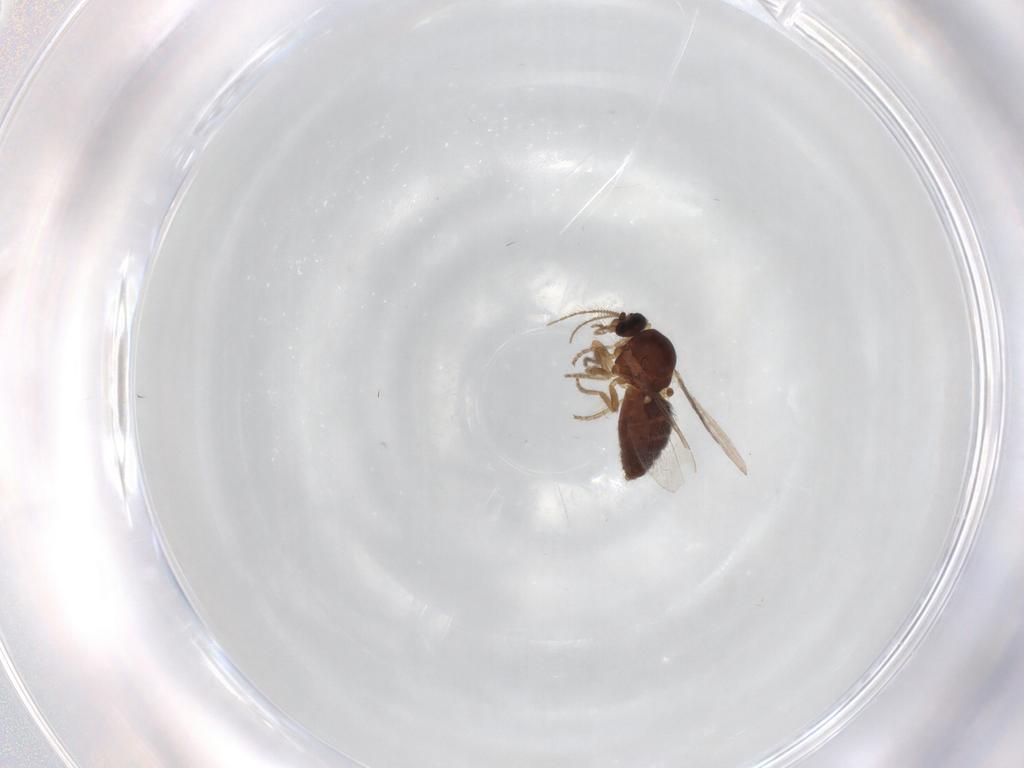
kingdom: Animalia
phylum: Arthropoda
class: Insecta
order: Diptera
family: Ceratopogonidae
